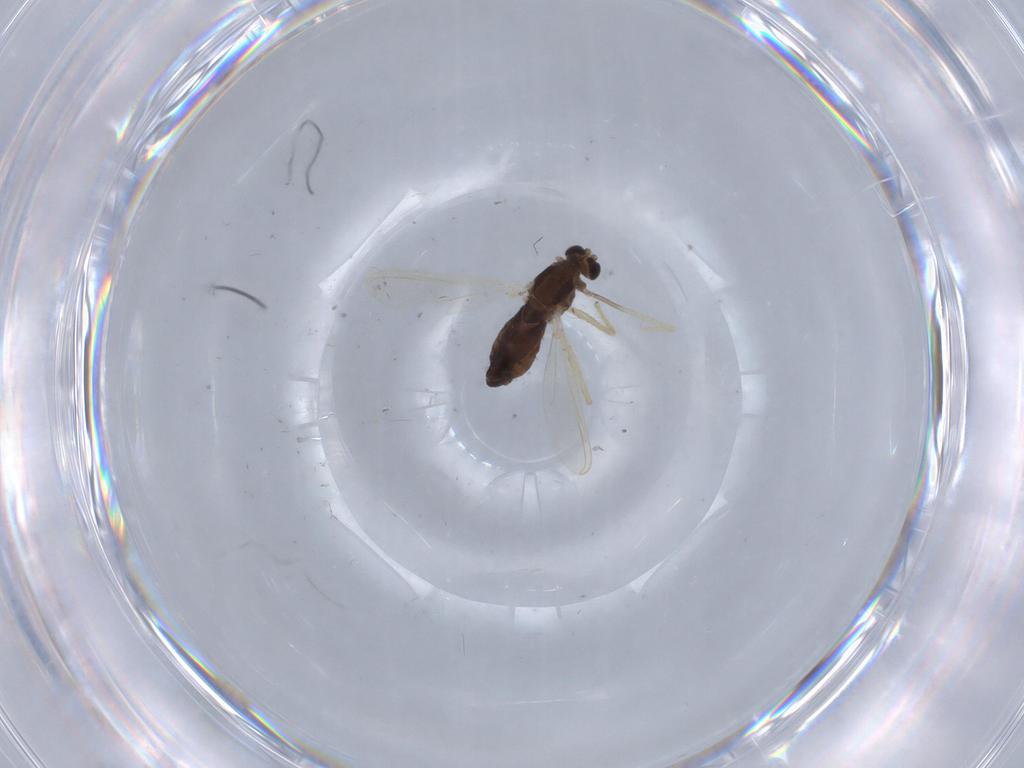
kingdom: Animalia
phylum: Arthropoda
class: Insecta
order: Diptera
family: Chironomidae
